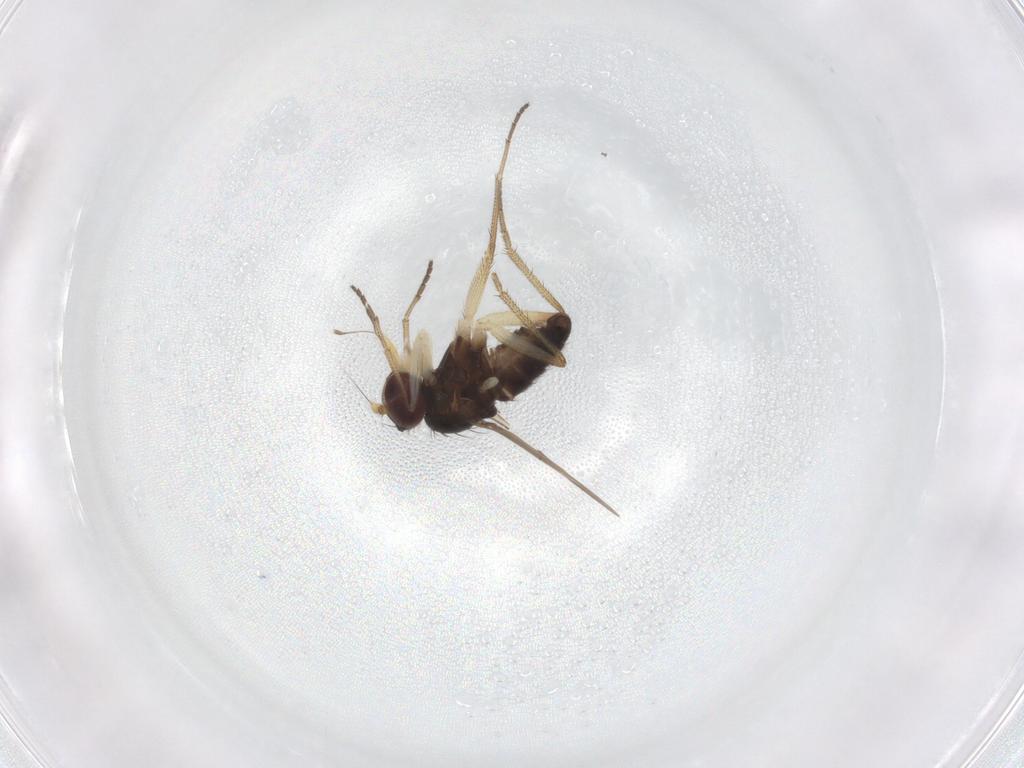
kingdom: Animalia
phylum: Arthropoda
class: Insecta
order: Diptera
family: Dolichopodidae
